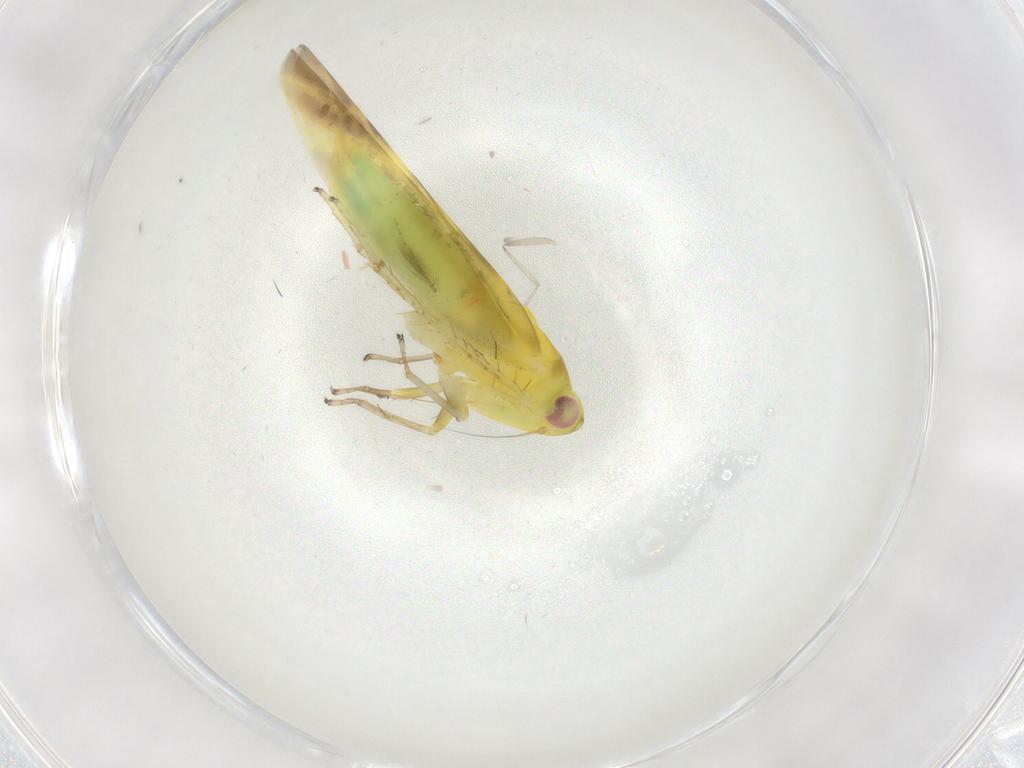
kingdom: Animalia
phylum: Arthropoda
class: Insecta
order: Hemiptera
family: Cicadellidae
